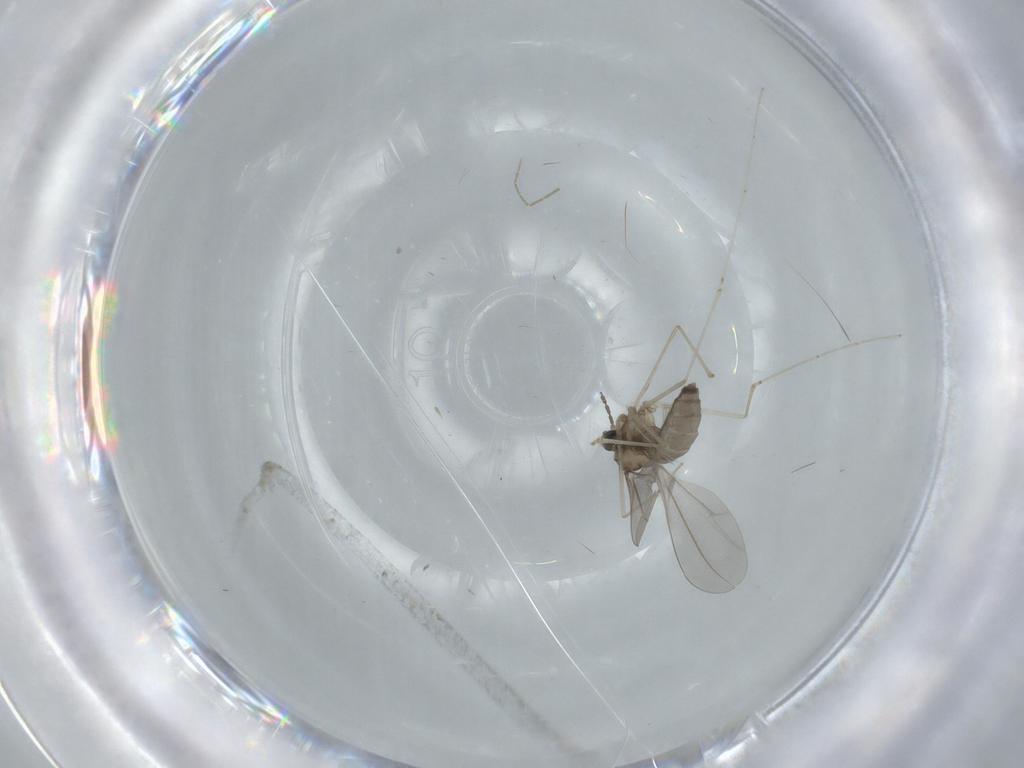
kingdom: Animalia
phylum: Arthropoda
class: Insecta
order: Diptera
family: Cecidomyiidae
